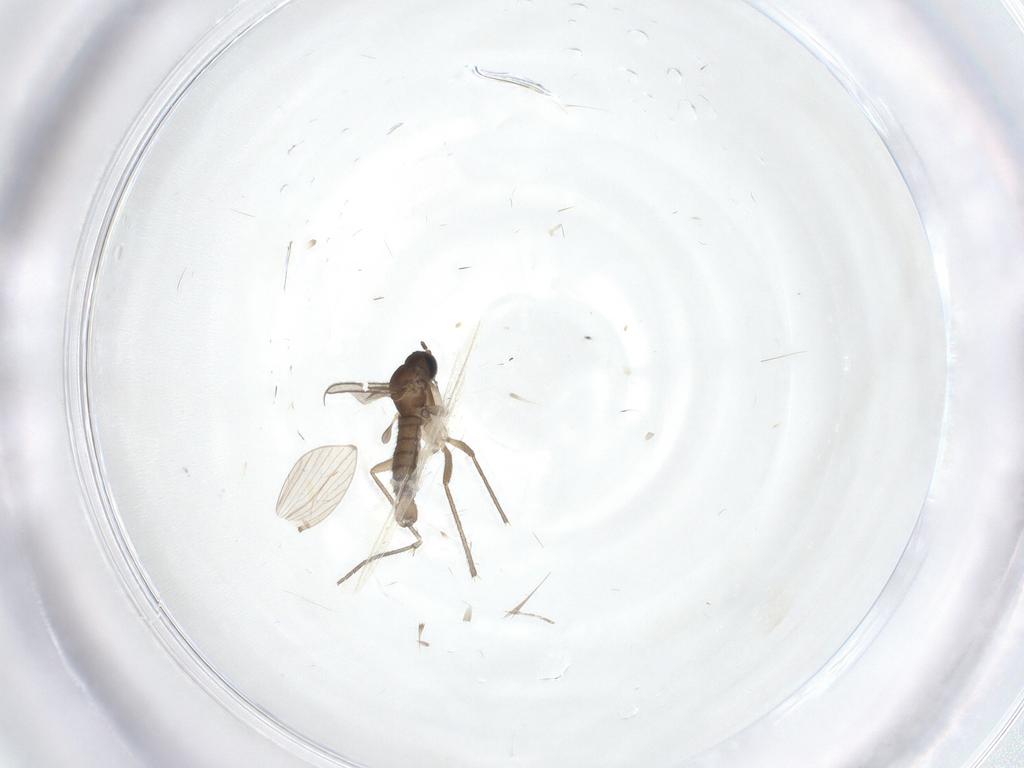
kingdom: Animalia
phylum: Arthropoda
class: Insecta
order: Diptera
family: Sciaridae
